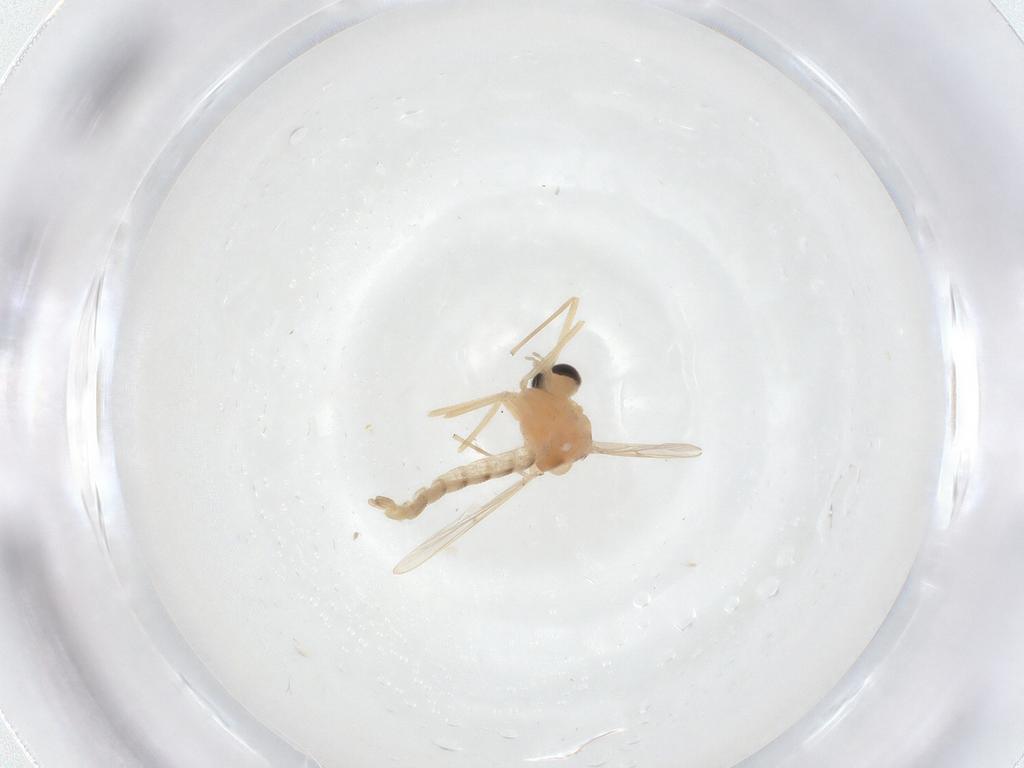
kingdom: Animalia
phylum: Arthropoda
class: Insecta
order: Diptera
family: Chironomidae
